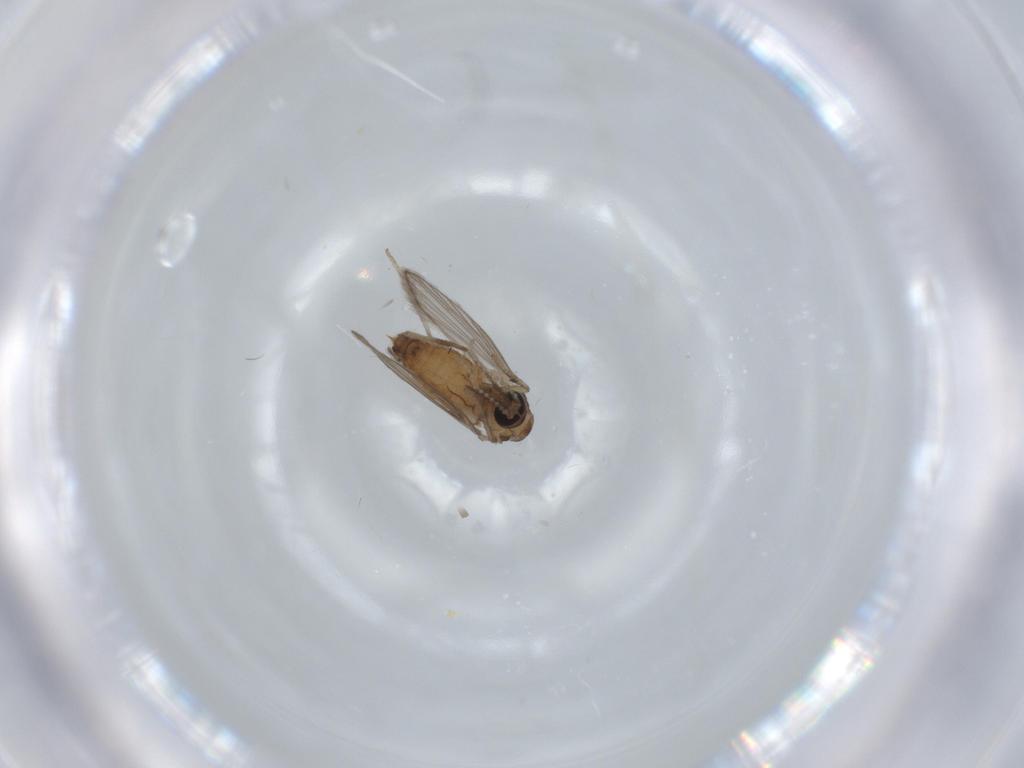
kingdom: Animalia
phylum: Arthropoda
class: Insecta
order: Diptera
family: Psychodidae
